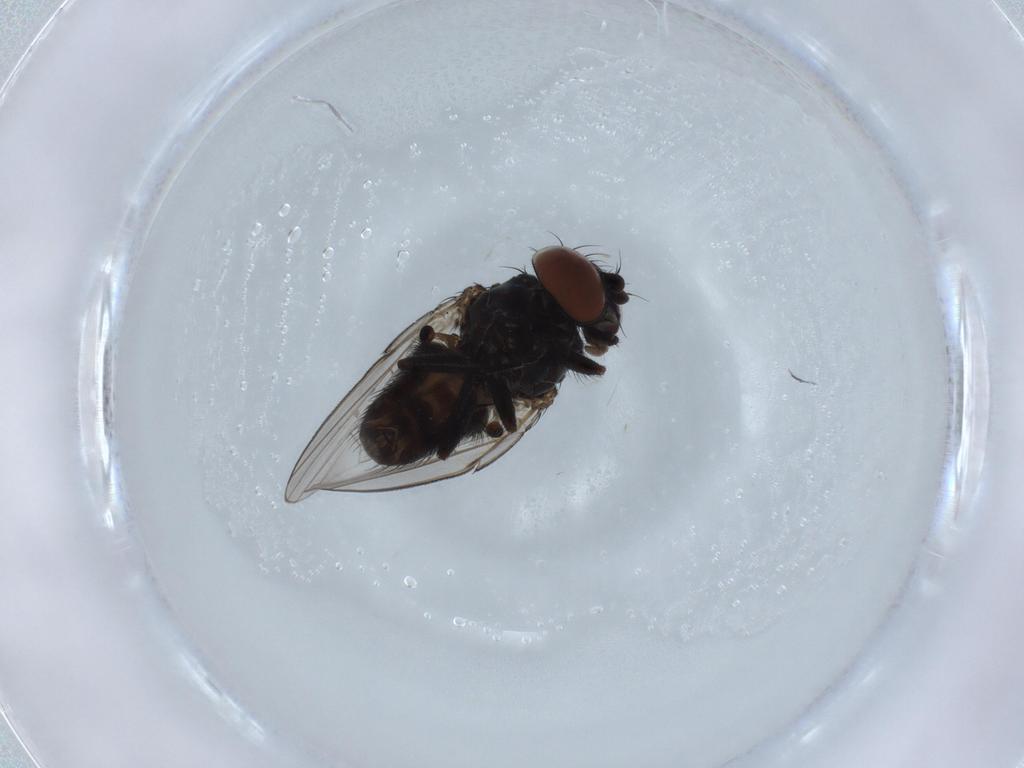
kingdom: Animalia
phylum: Arthropoda
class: Insecta
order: Diptera
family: Milichiidae
